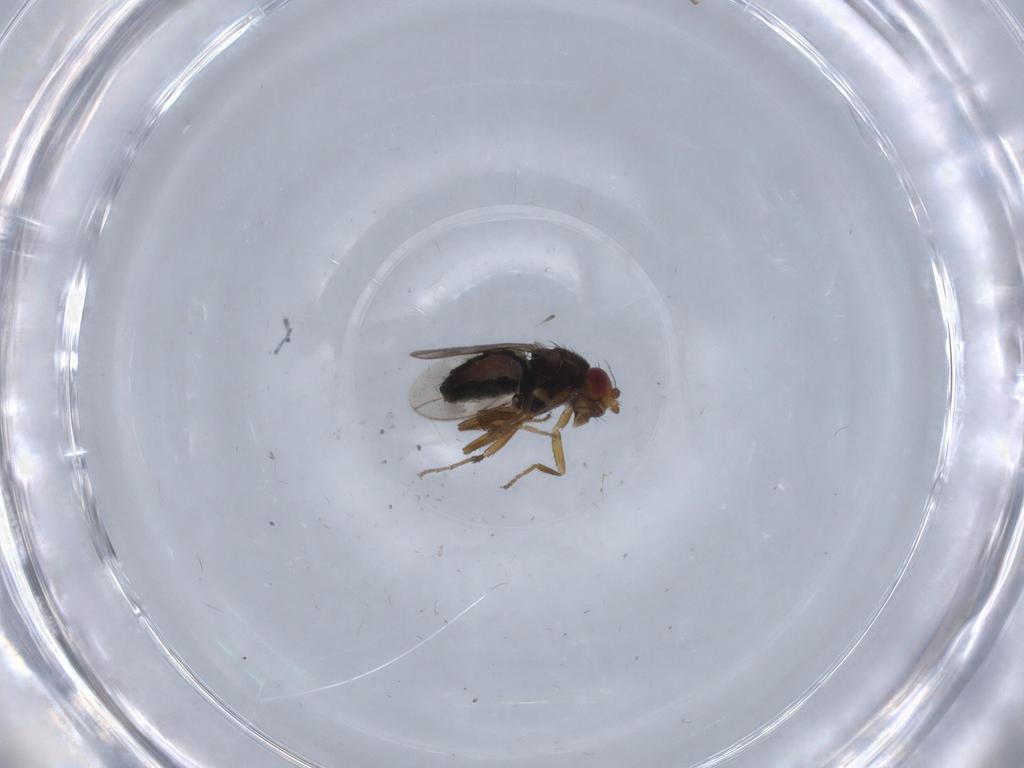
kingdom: Animalia
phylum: Arthropoda
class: Insecta
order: Diptera
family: Sphaeroceridae
